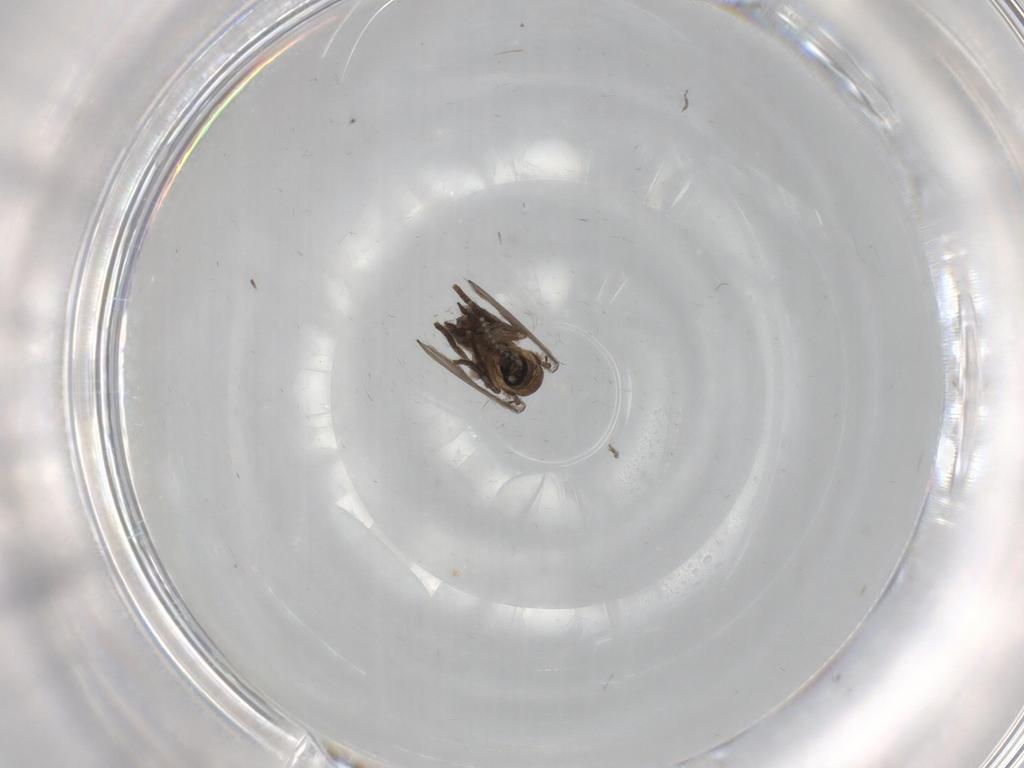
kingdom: Animalia
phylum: Arthropoda
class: Insecta
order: Diptera
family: Psychodidae
